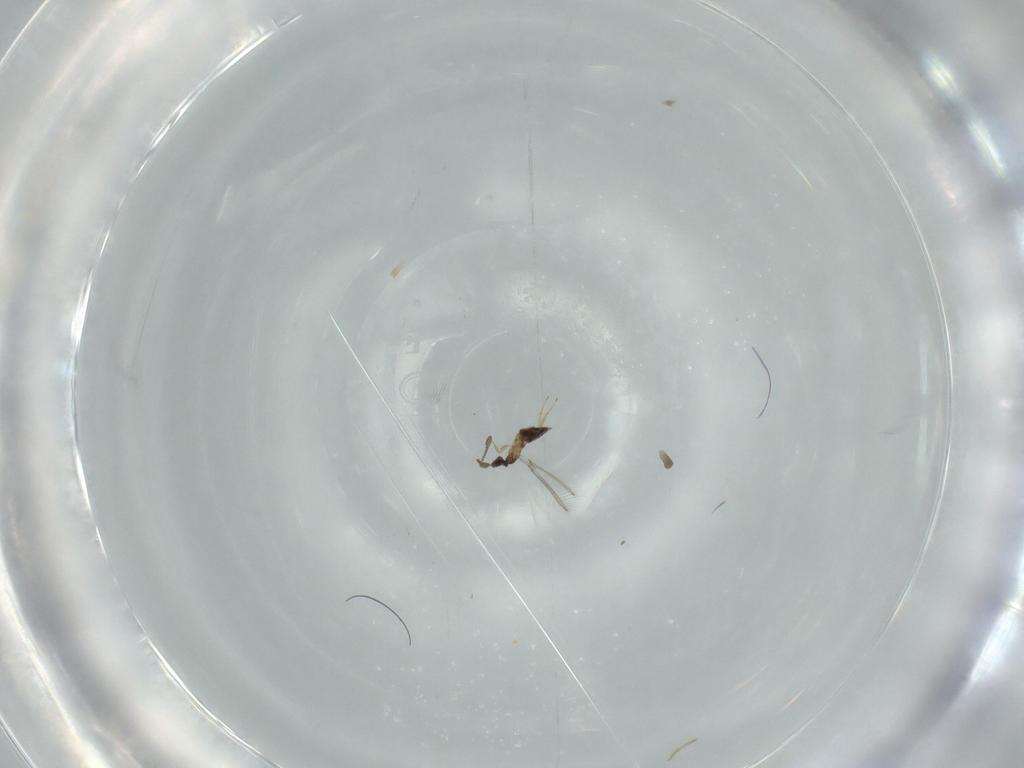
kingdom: Animalia
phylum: Arthropoda
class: Insecta
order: Hymenoptera
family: Mymaridae
